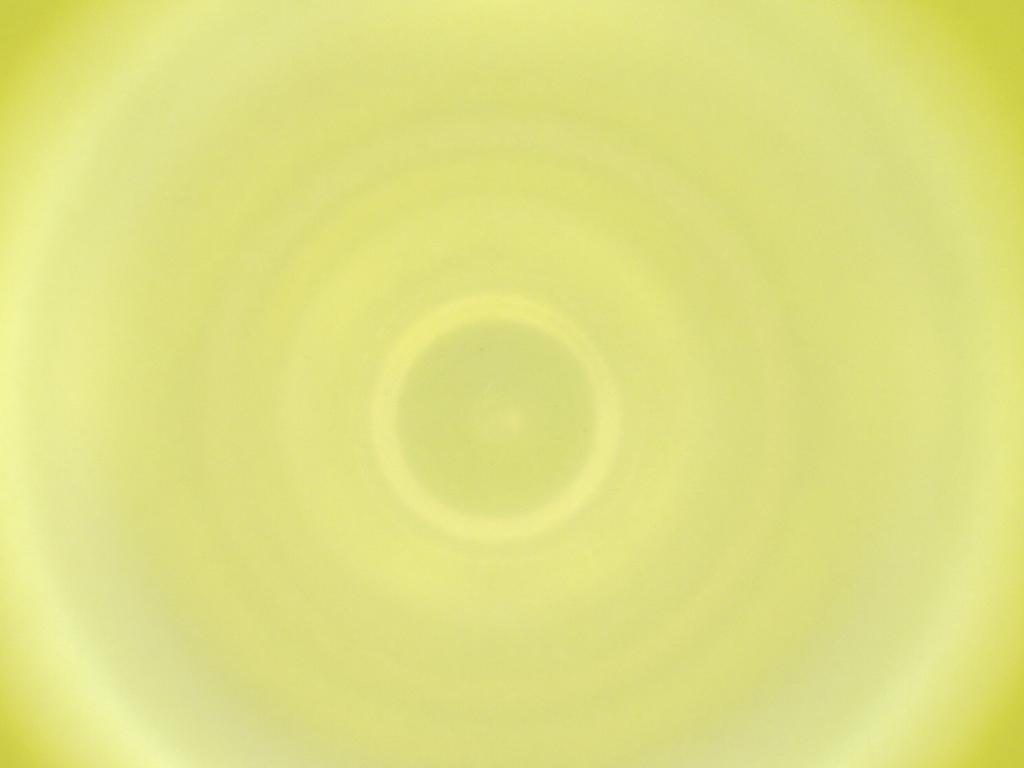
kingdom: Animalia
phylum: Arthropoda
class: Insecta
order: Diptera
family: Cecidomyiidae
